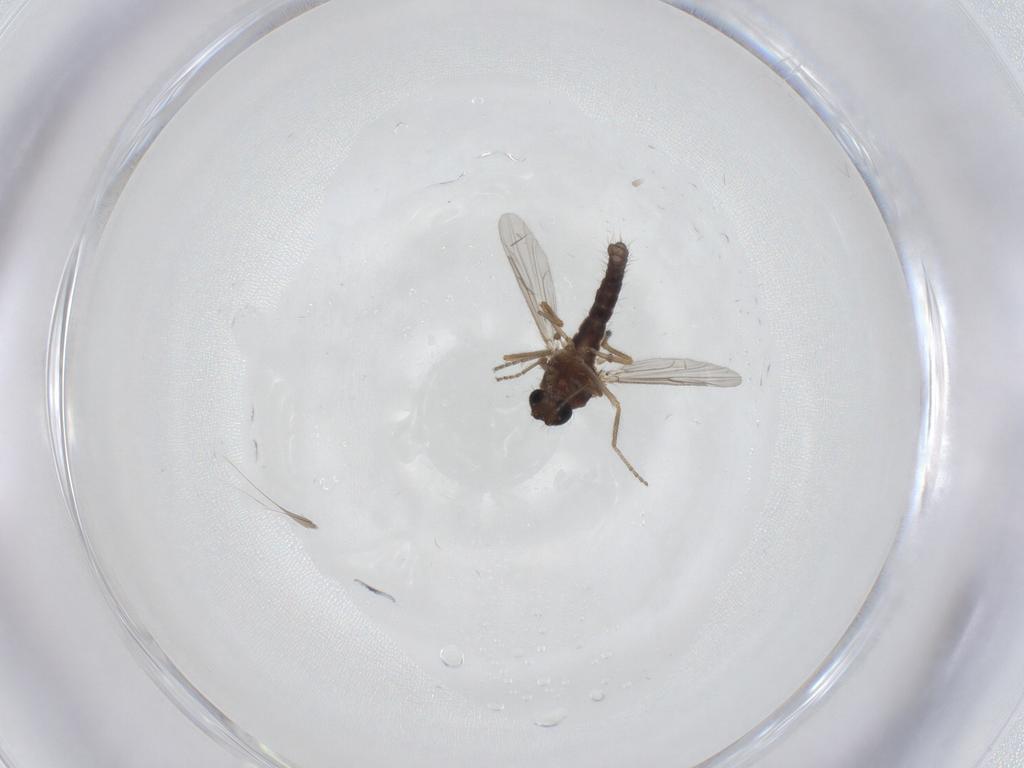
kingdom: Animalia
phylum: Arthropoda
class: Insecta
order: Diptera
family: Ceratopogonidae
